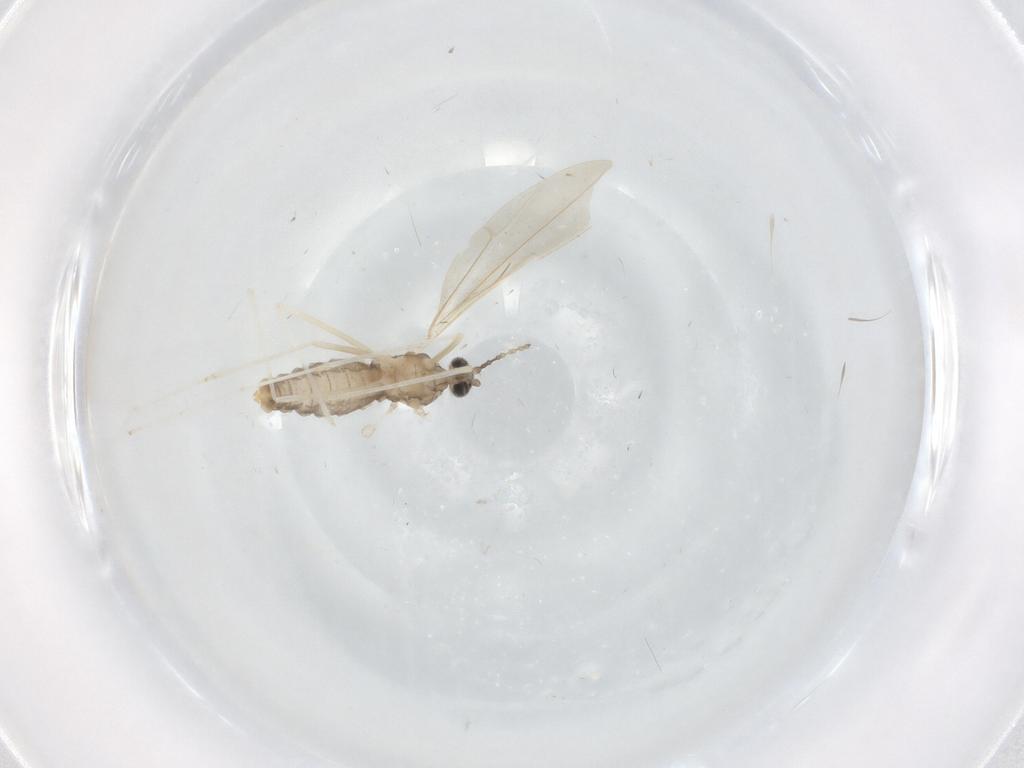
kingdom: Animalia
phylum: Arthropoda
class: Insecta
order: Diptera
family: Cecidomyiidae
